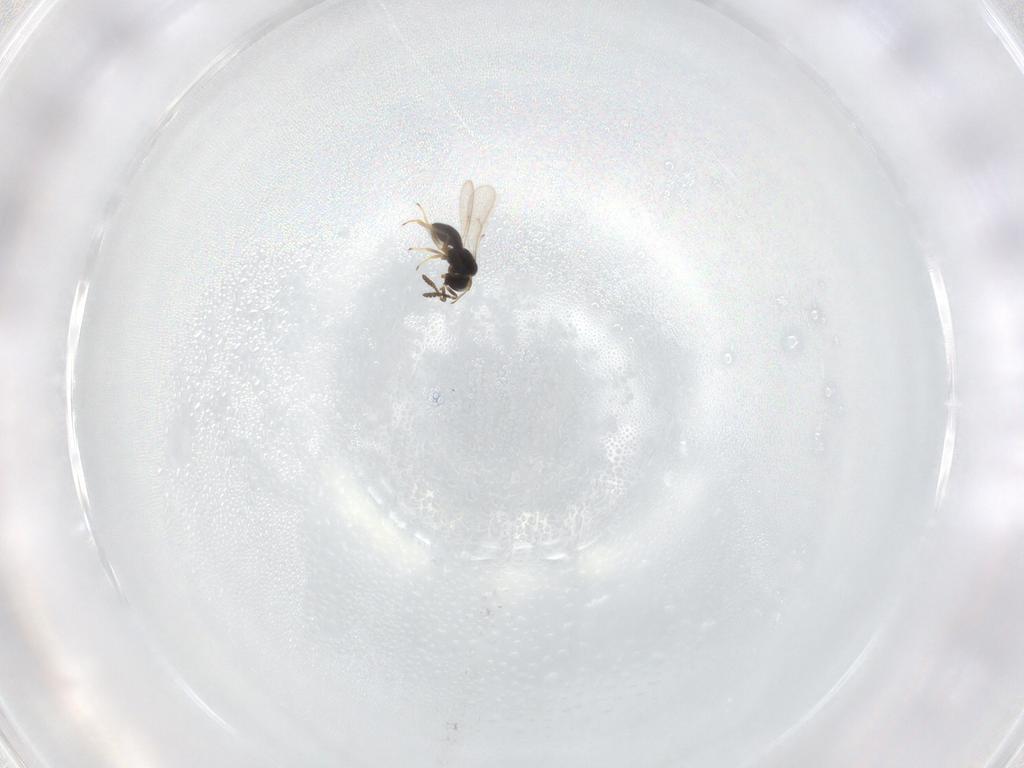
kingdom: Animalia
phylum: Arthropoda
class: Insecta
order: Hymenoptera
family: Scelionidae
